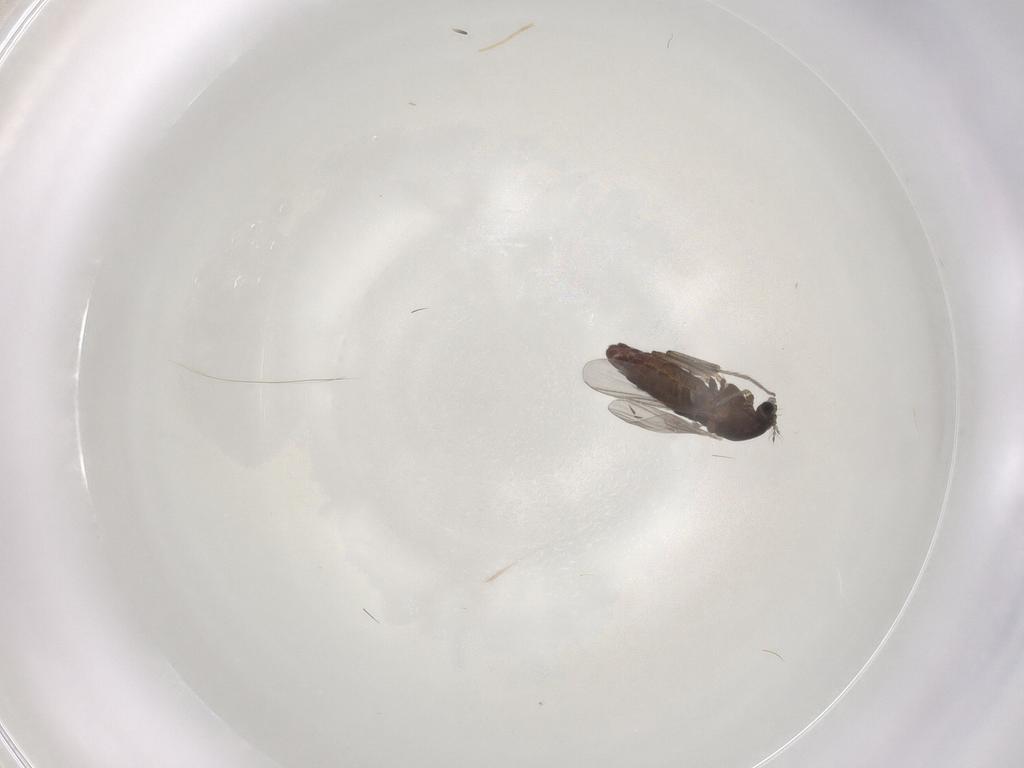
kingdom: Animalia
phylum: Arthropoda
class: Insecta
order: Diptera
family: Chironomidae
